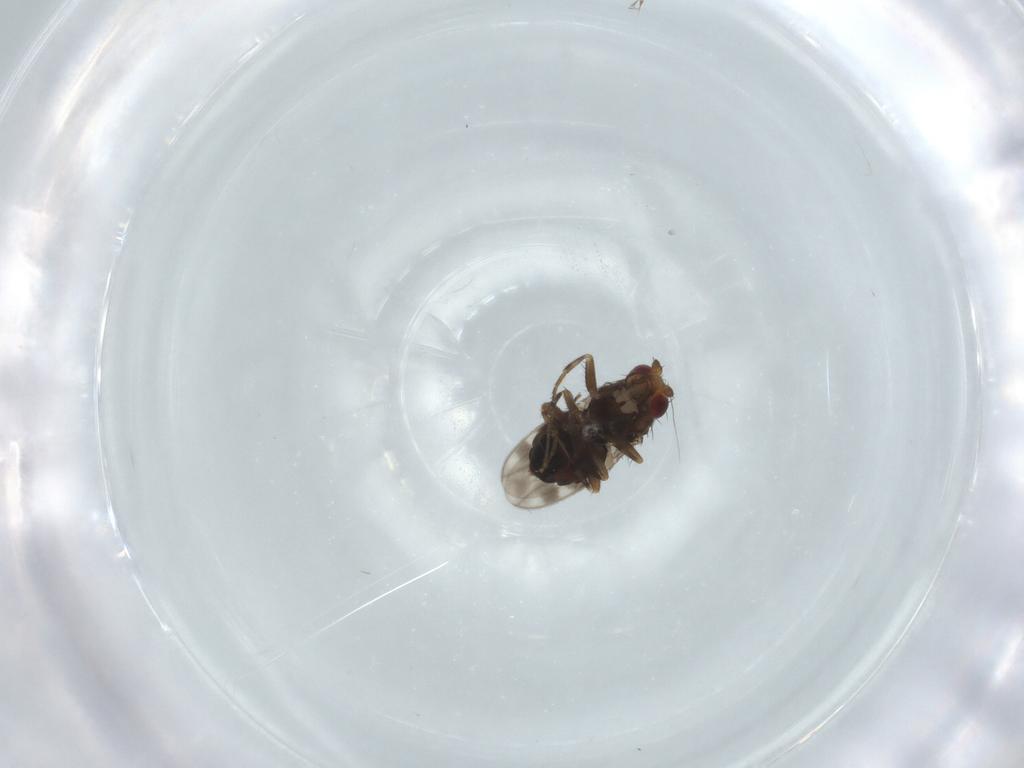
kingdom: Animalia
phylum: Arthropoda
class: Insecta
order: Diptera
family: Sphaeroceridae
